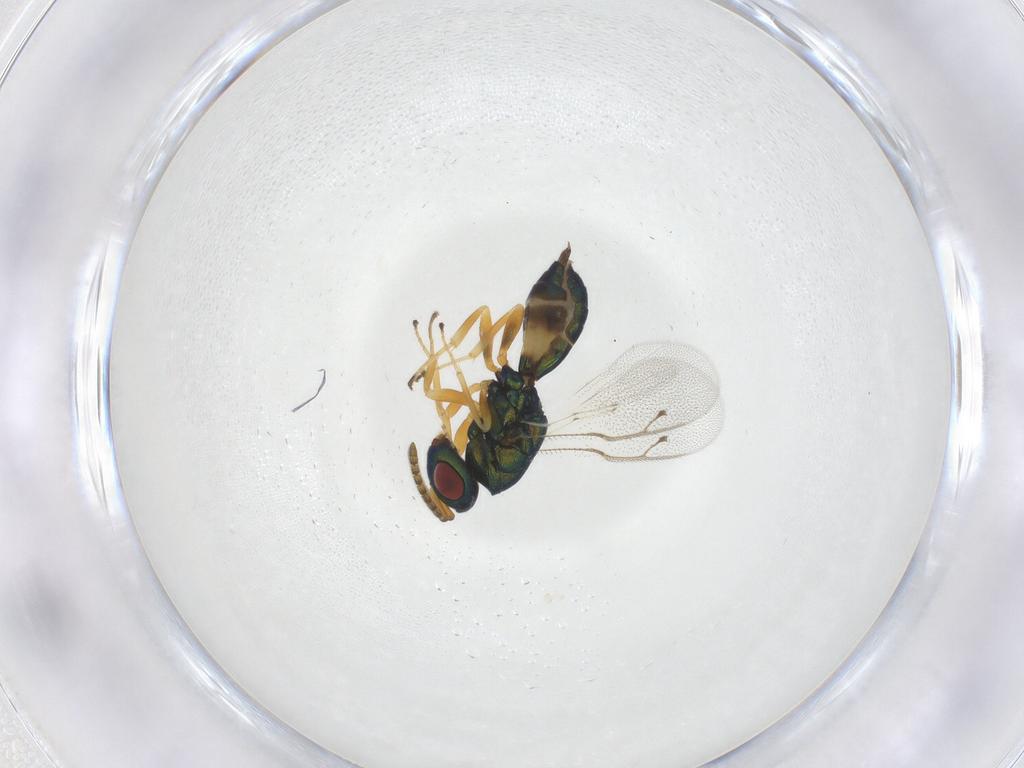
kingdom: Animalia
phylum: Arthropoda
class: Insecta
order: Hymenoptera
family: Pteromalidae
